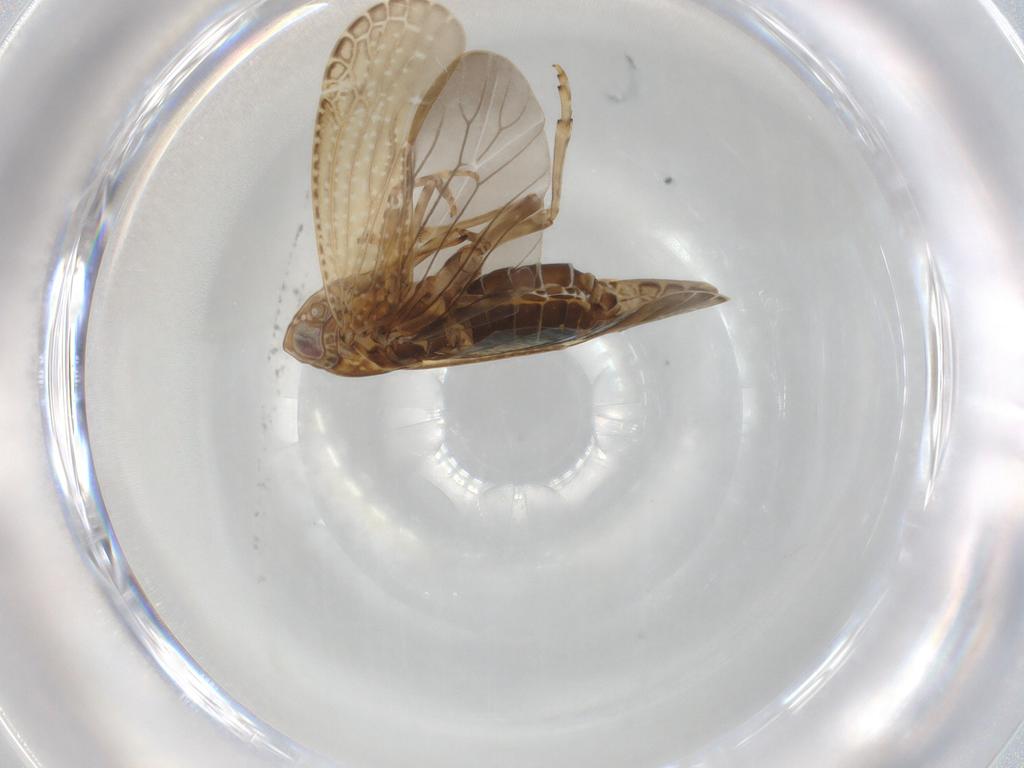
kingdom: Animalia
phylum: Arthropoda
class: Insecta
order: Hemiptera
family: Achilidae
